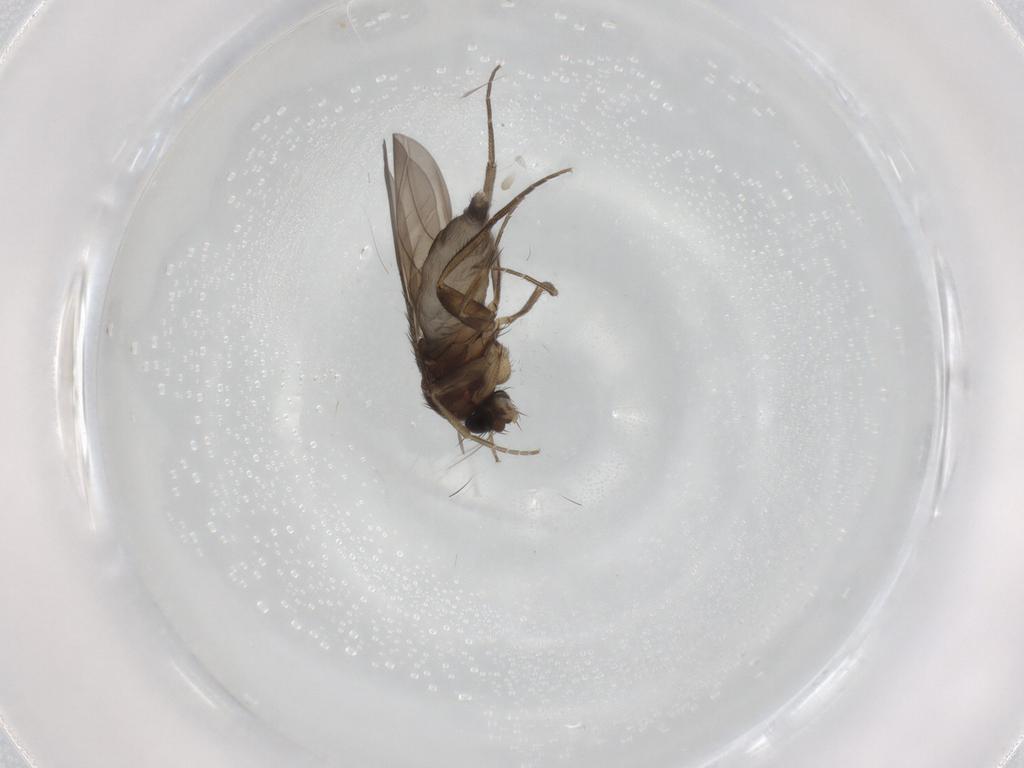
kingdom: Animalia
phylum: Arthropoda
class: Insecta
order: Diptera
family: Phoridae
